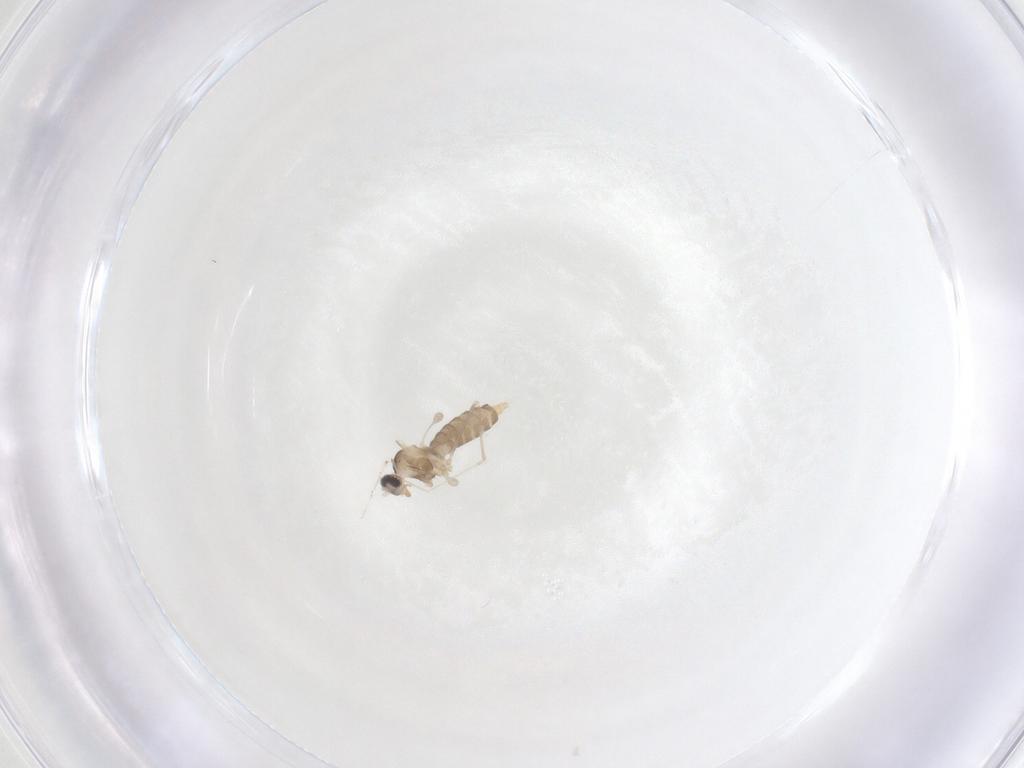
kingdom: Animalia
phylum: Arthropoda
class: Insecta
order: Diptera
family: Cecidomyiidae
